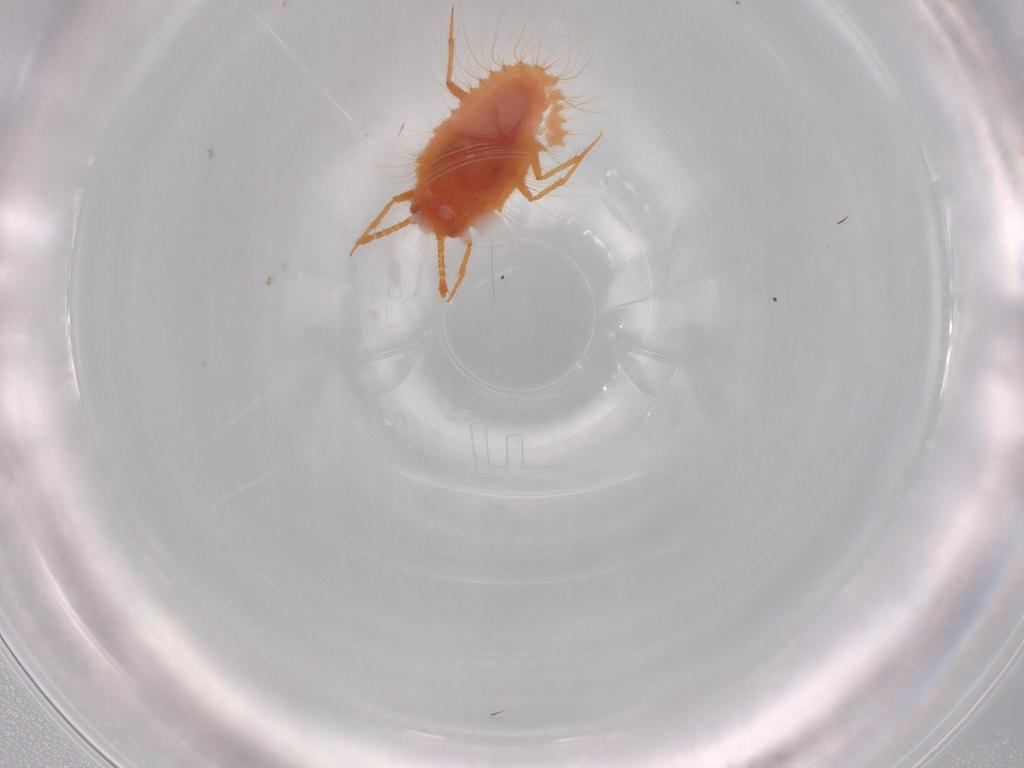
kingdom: Animalia
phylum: Arthropoda
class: Insecta
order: Hemiptera
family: Coccoidea_incertae_sedis
